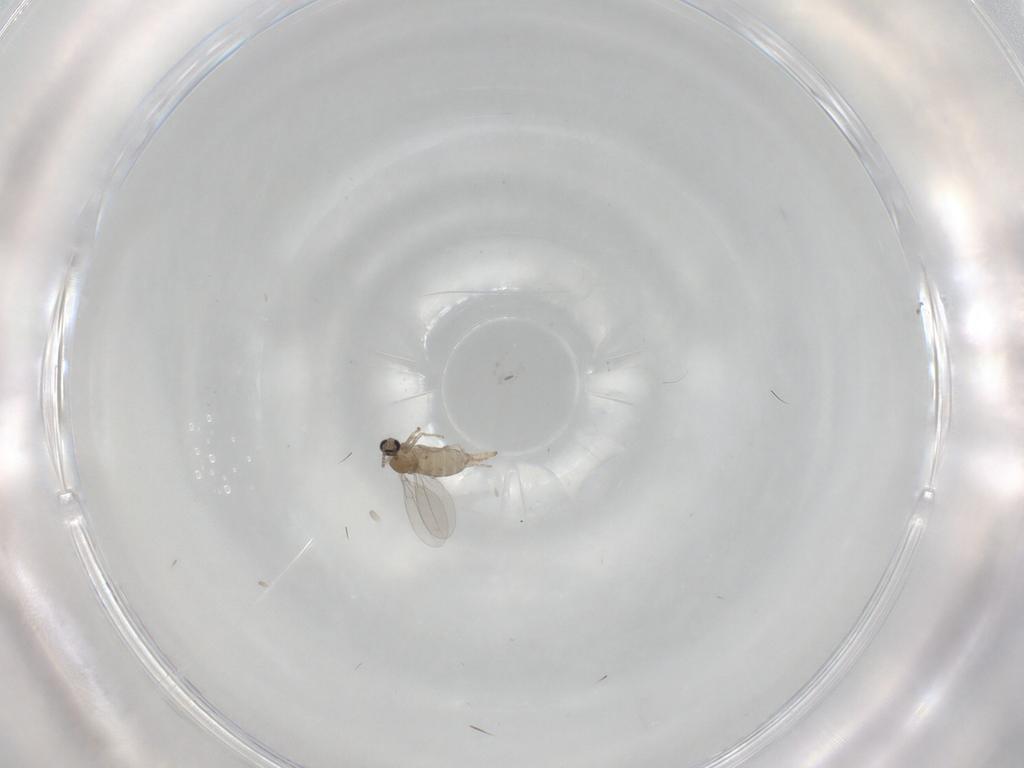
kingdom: Animalia
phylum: Arthropoda
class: Insecta
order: Diptera
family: Cecidomyiidae
